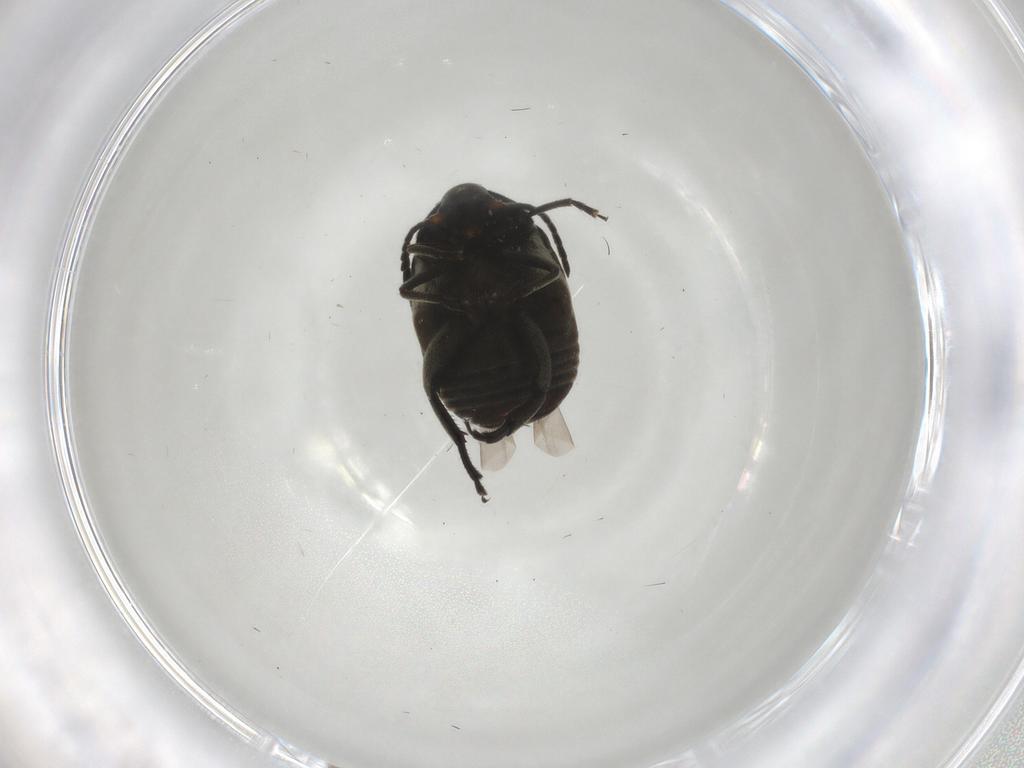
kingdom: Animalia
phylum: Arthropoda
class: Insecta
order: Coleoptera
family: Chrysomelidae
